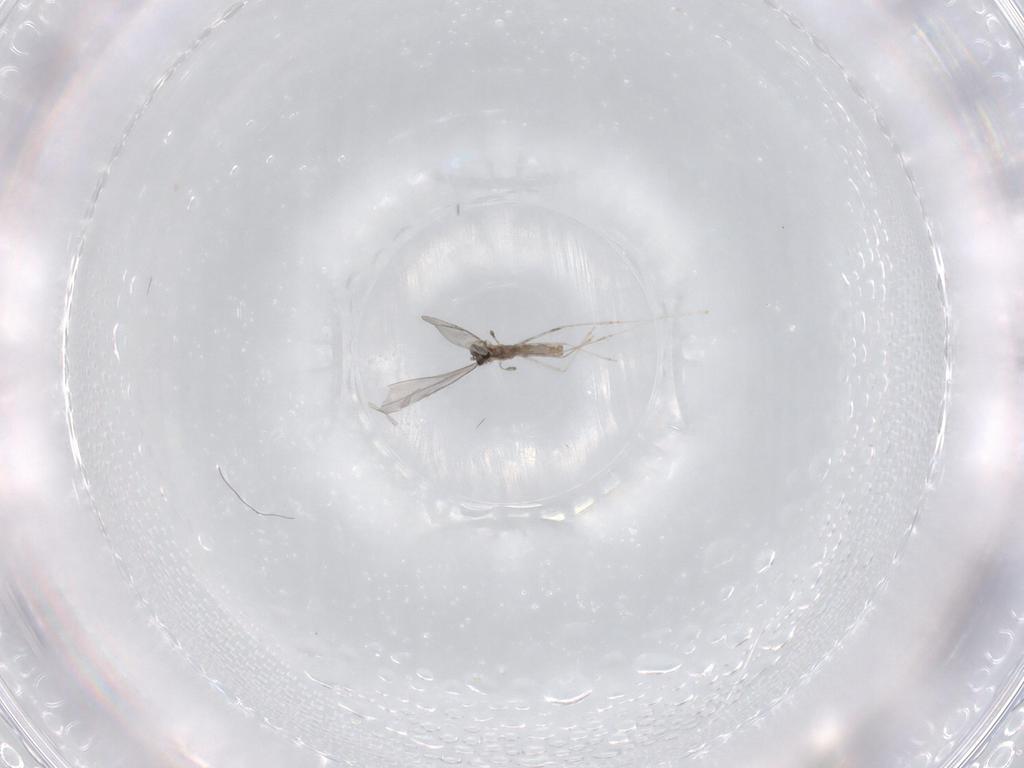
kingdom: Animalia
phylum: Arthropoda
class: Insecta
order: Diptera
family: Cecidomyiidae
